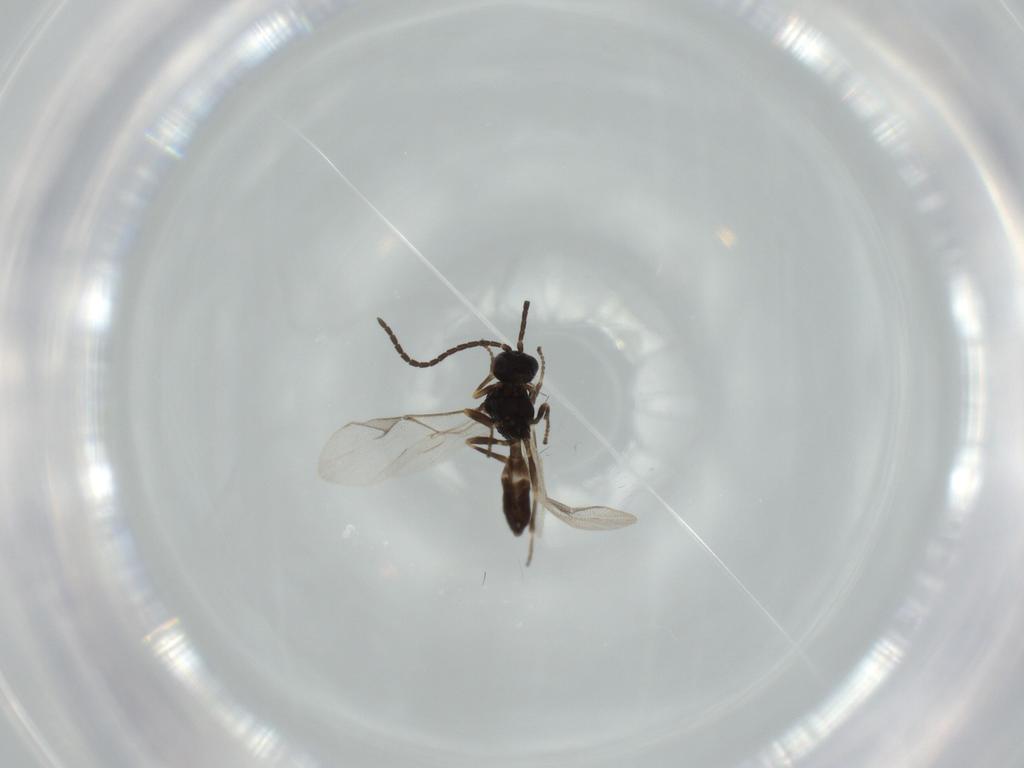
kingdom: Animalia
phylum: Arthropoda
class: Insecta
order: Hymenoptera
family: Braconidae
